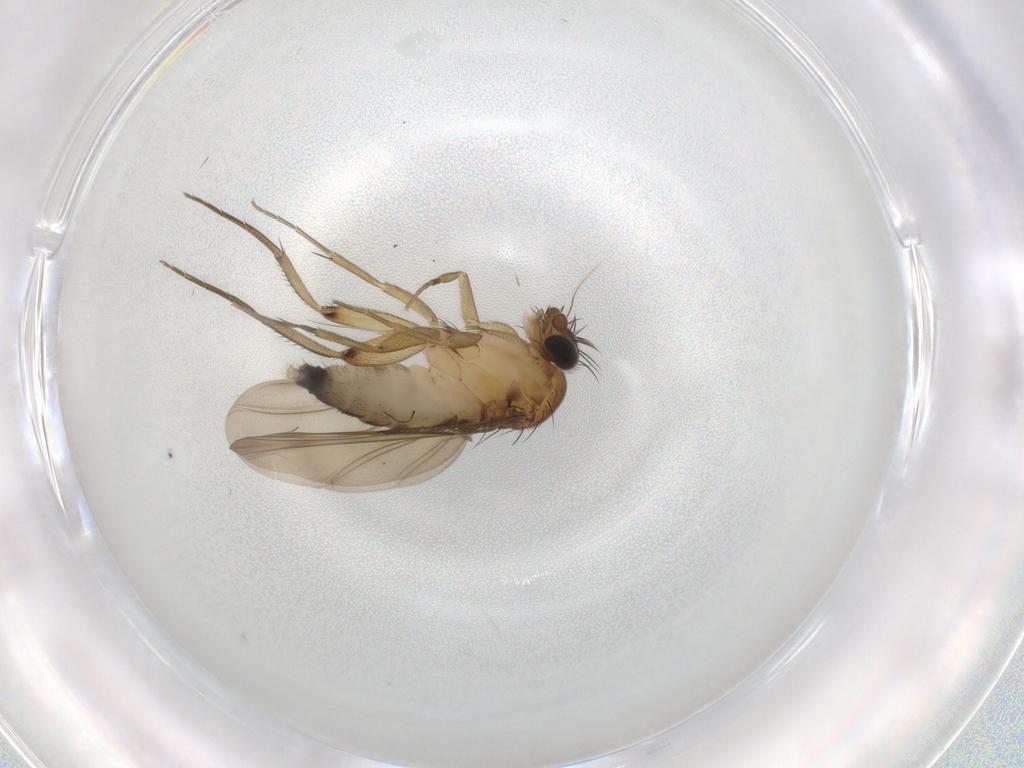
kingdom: Animalia
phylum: Arthropoda
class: Insecta
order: Diptera
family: Phoridae
